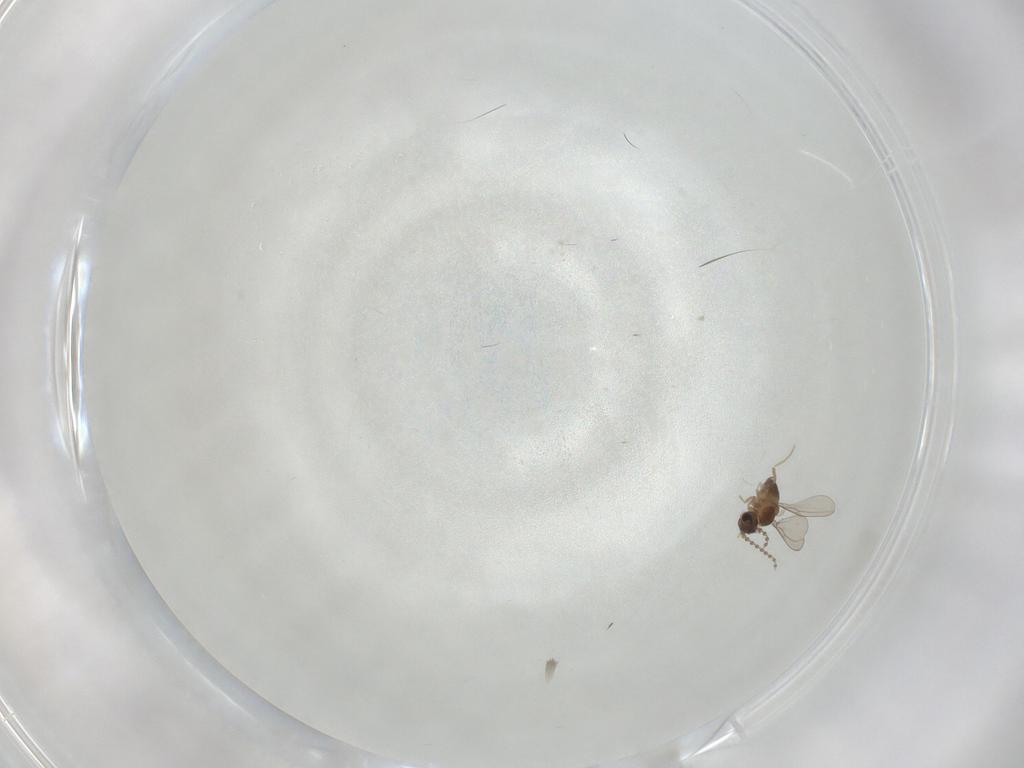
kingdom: Animalia
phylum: Arthropoda
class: Insecta
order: Diptera
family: Cecidomyiidae
